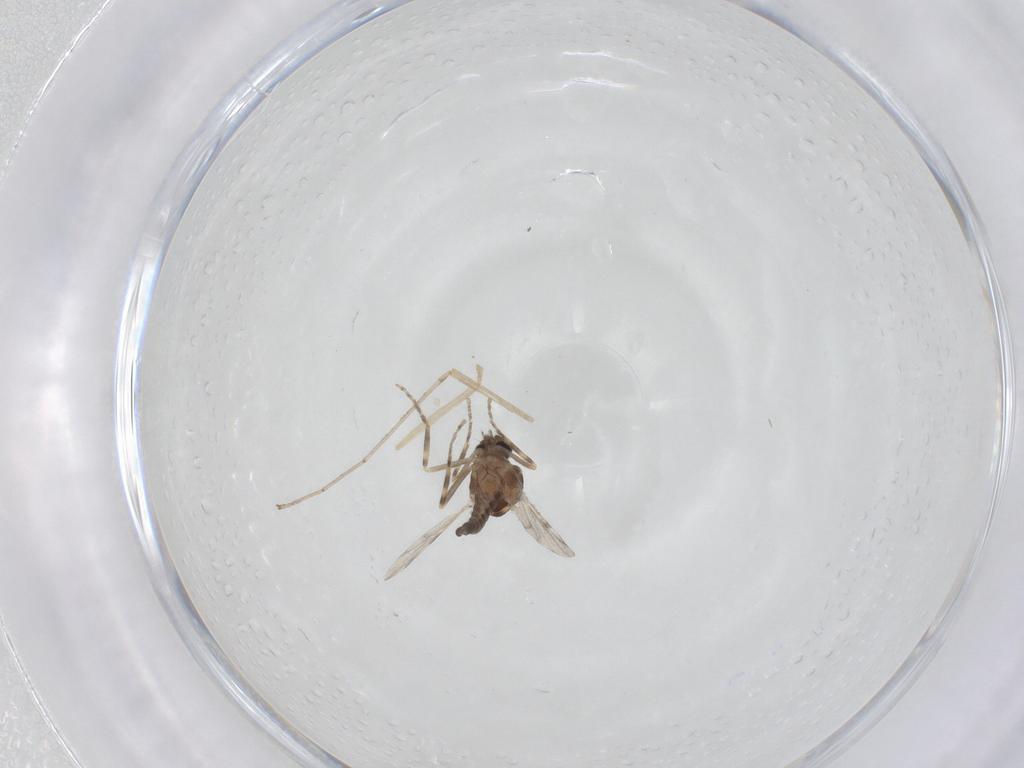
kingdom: Animalia
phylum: Arthropoda
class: Insecta
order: Diptera
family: Ceratopogonidae
